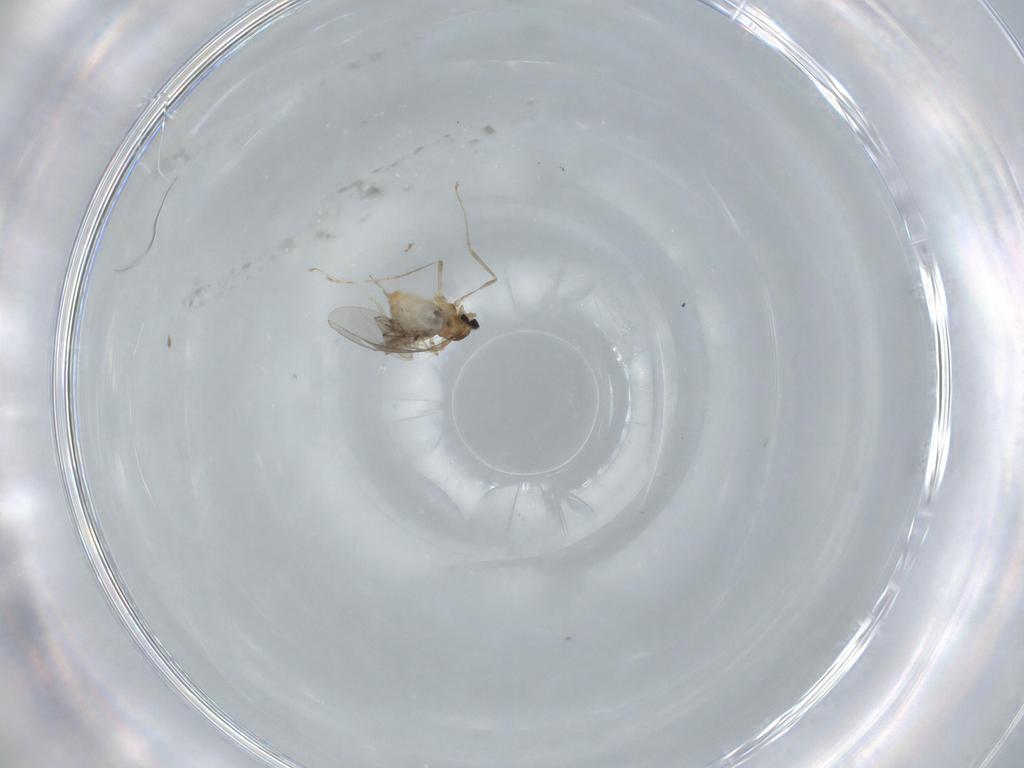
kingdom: Animalia
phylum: Arthropoda
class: Insecta
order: Diptera
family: Cecidomyiidae
